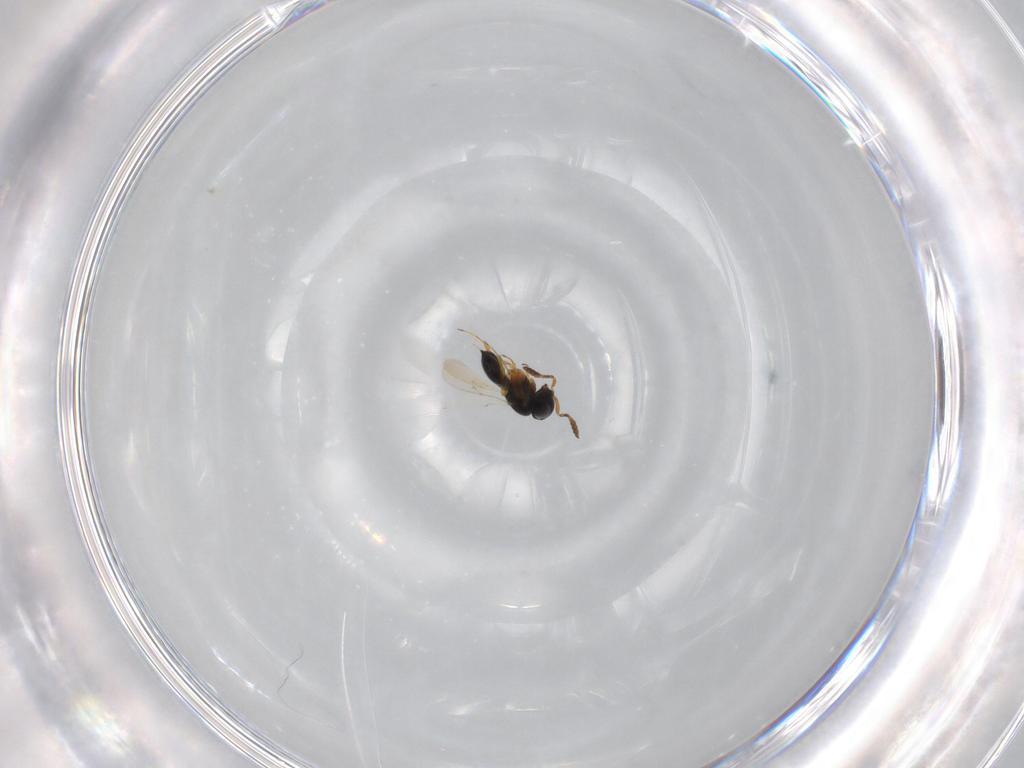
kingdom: Animalia
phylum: Arthropoda
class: Insecta
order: Hymenoptera
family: Scelionidae
